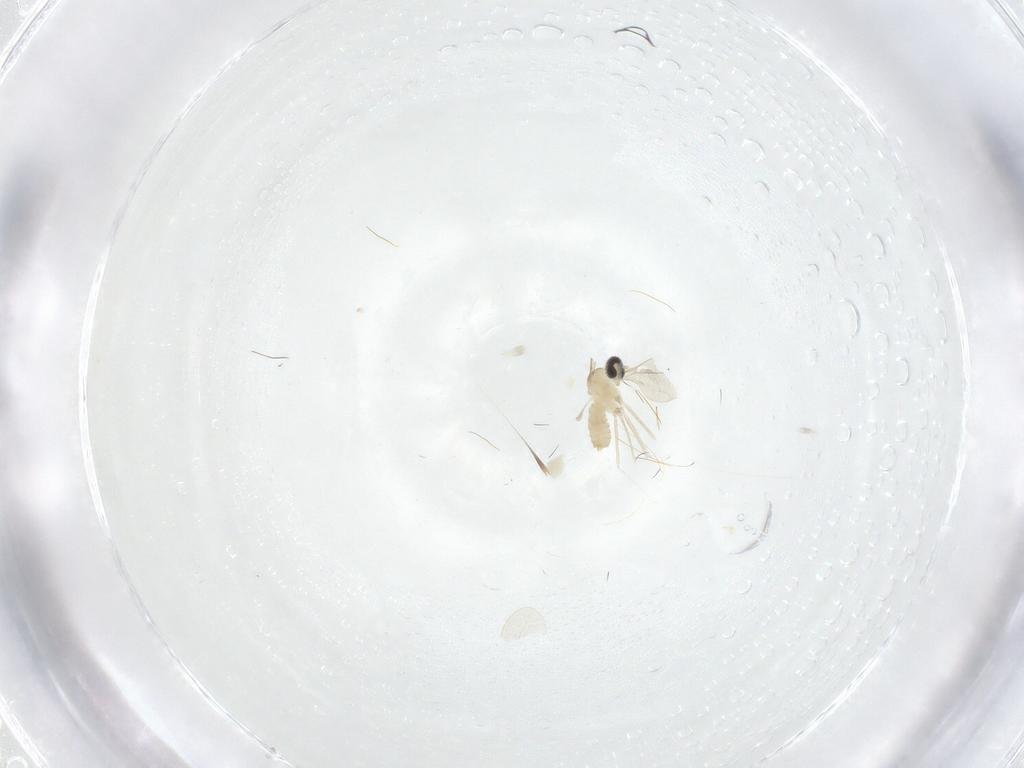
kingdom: Animalia
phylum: Arthropoda
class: Insecta
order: Diptera
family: Cecidomyiidae
